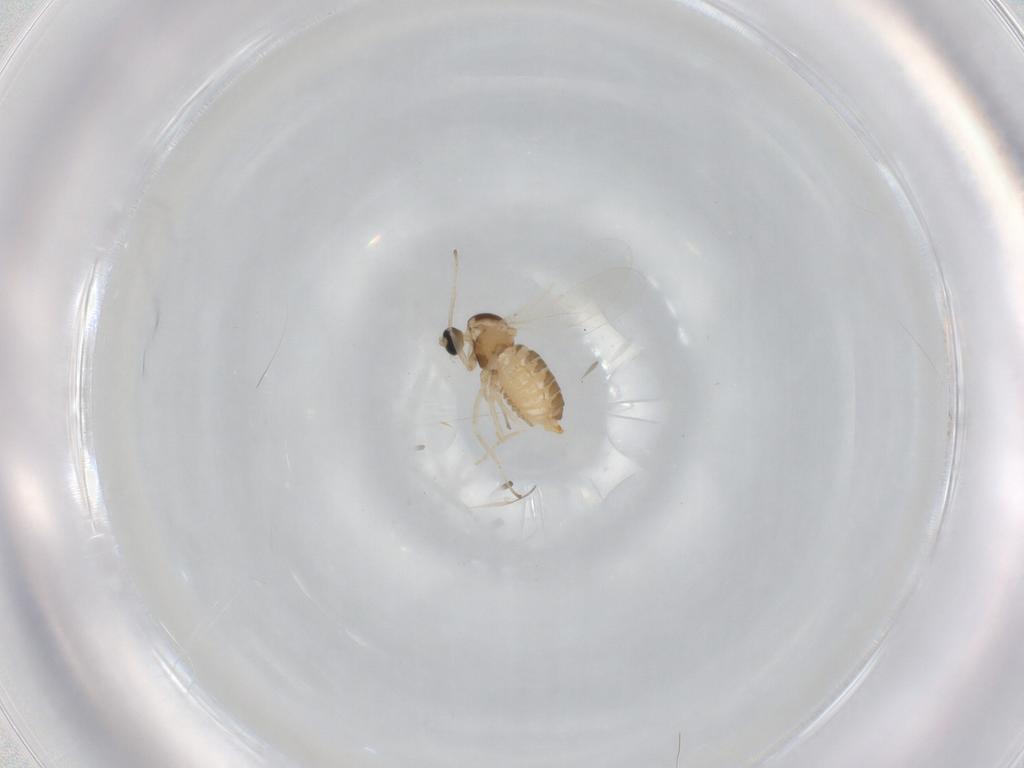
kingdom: Animalia
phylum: Arthropoda
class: Insecta
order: Diptera
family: Cecidomyiidae
